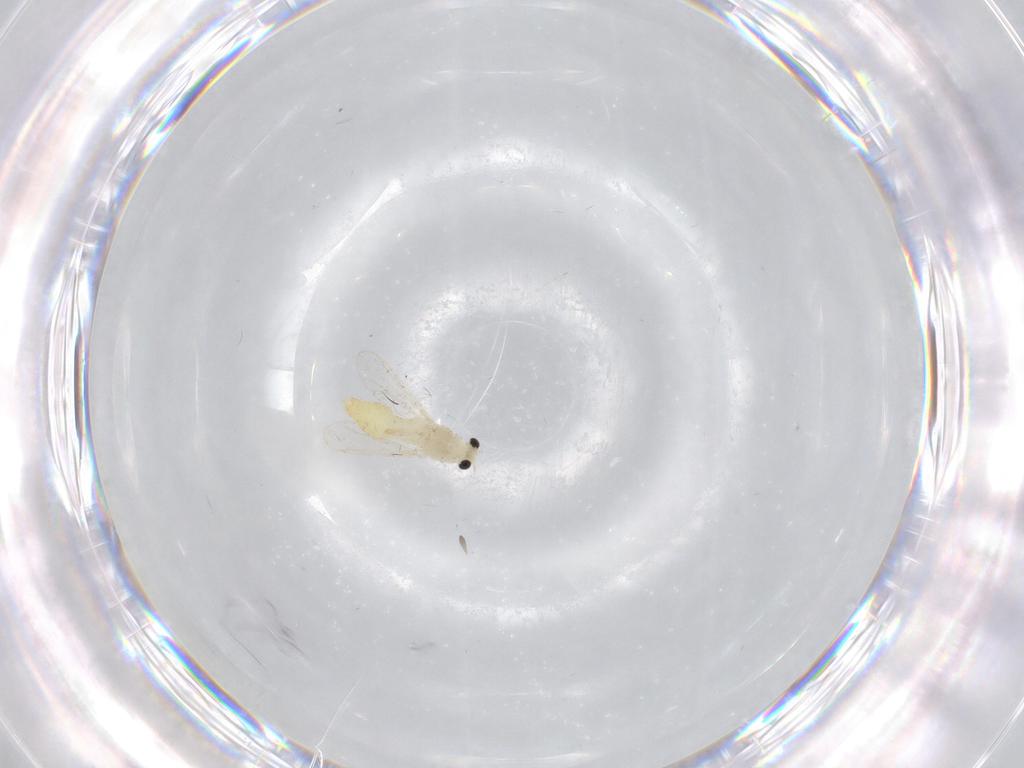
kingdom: Animalia
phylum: Arthropoda
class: Insecta
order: Diptera
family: Chironomidae
